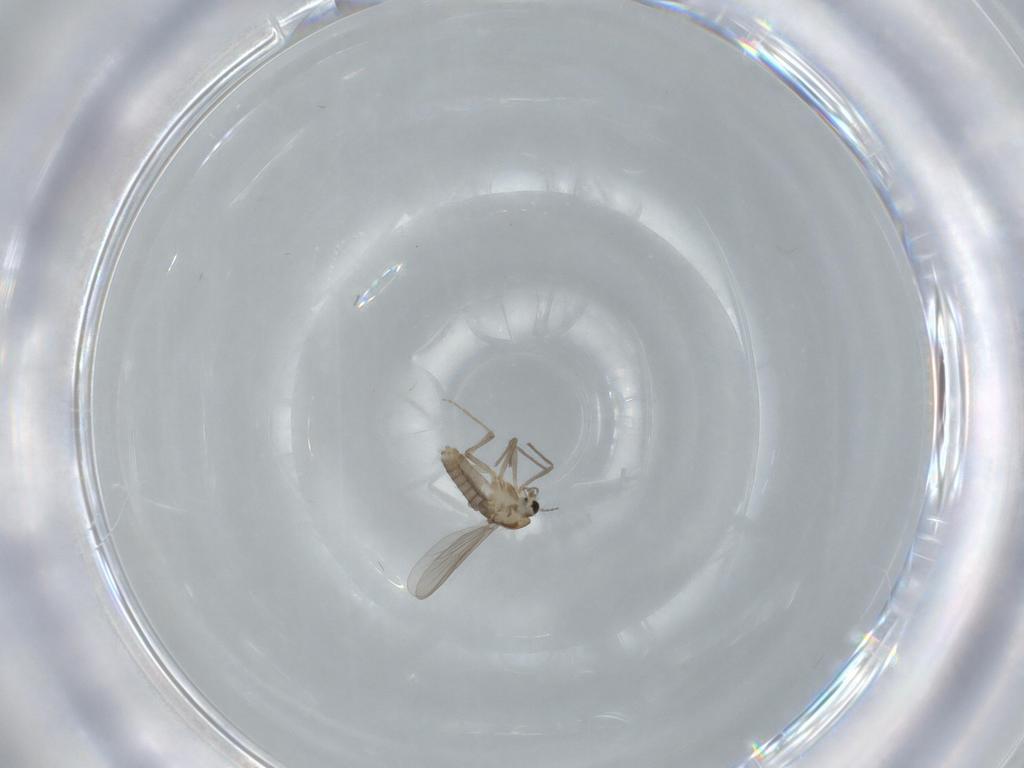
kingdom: Animalia
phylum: Arthropoda
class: Insecta
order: Diptera
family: Chironomidae
